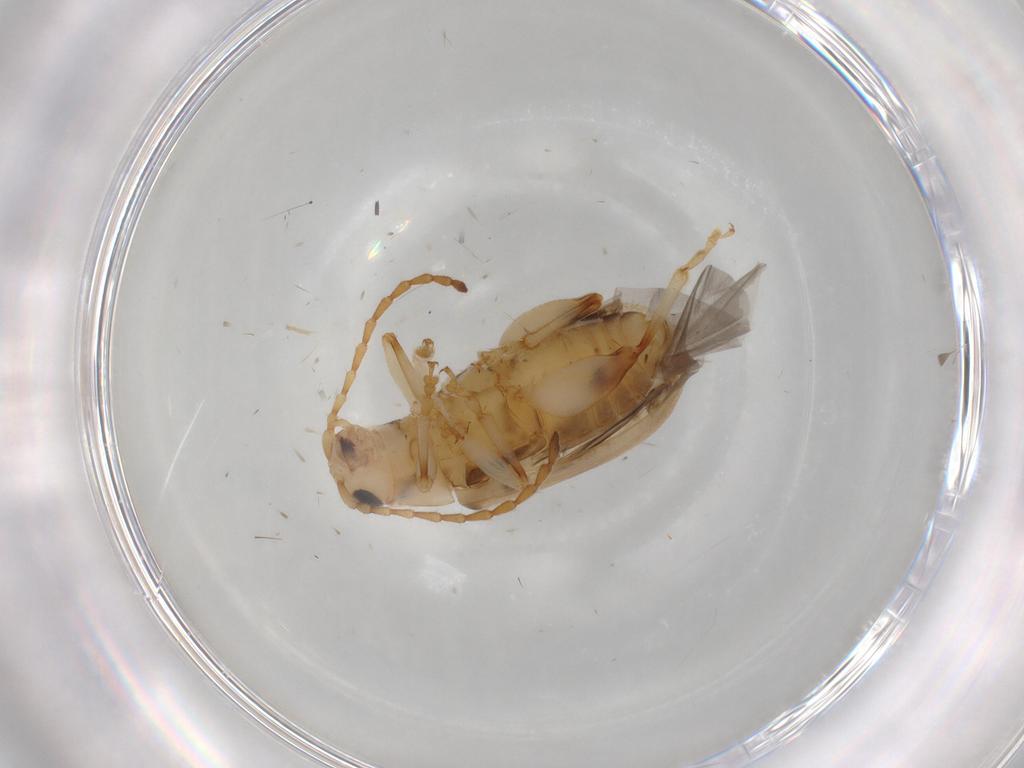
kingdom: Animalia
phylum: Arthropoda
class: Insecta
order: Coleoptera
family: Chrysomelidae
